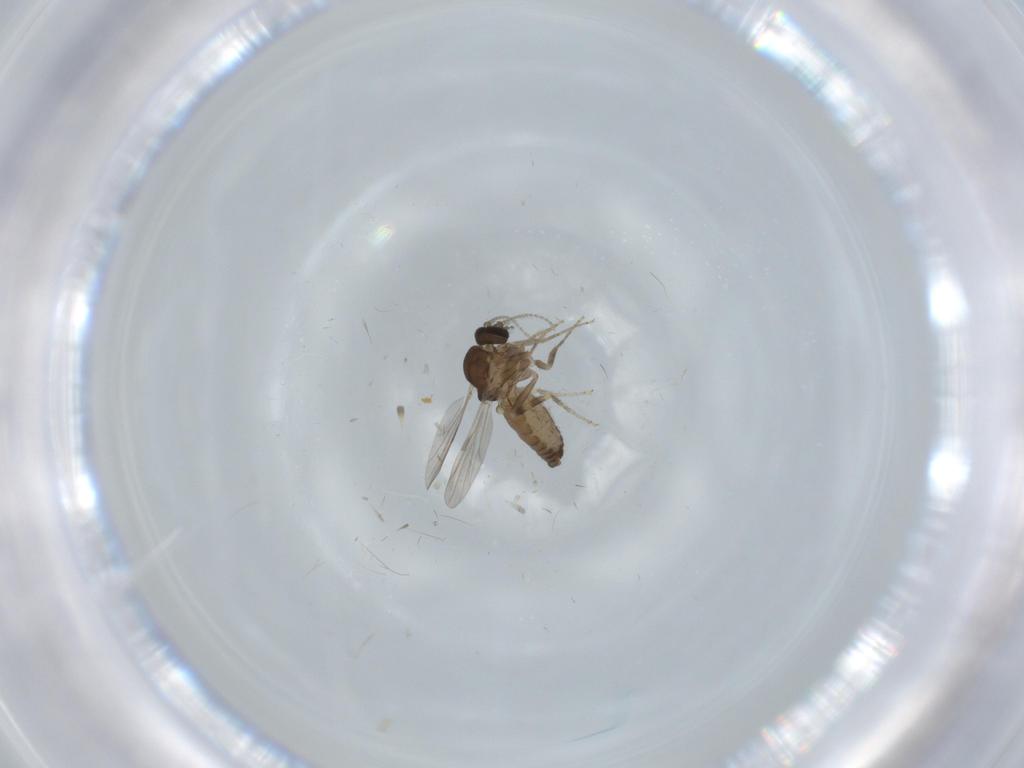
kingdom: Animalia
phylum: Arthropoda
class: Insecta
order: Diptera
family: Ceratopogonidae
